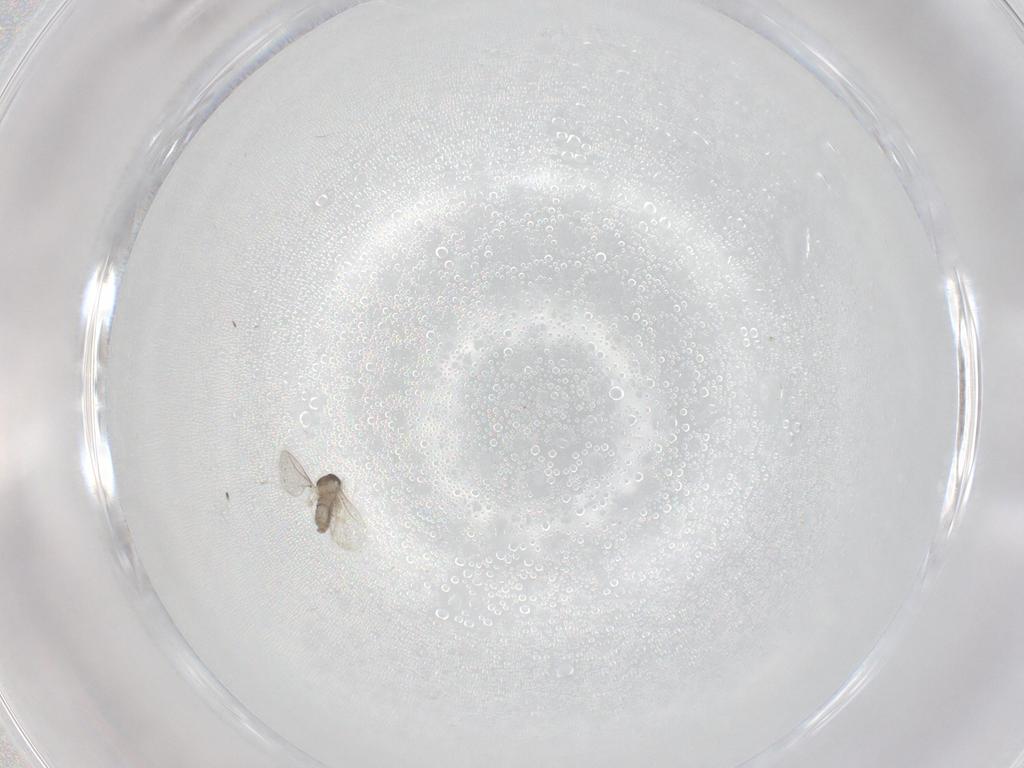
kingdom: Animalia
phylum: Arthropoda
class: Insecta
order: Diptera
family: Cecidomyiidae
